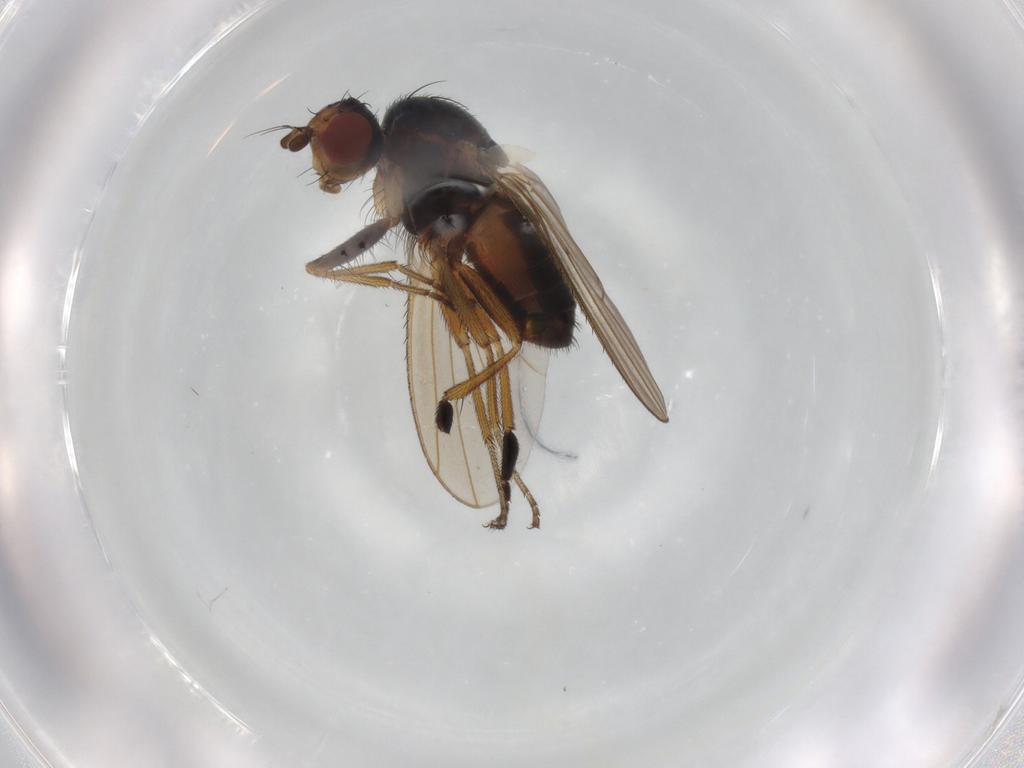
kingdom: Animalia
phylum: Arthropoda
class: Insecta
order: Diptera
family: Heleomyzidae
